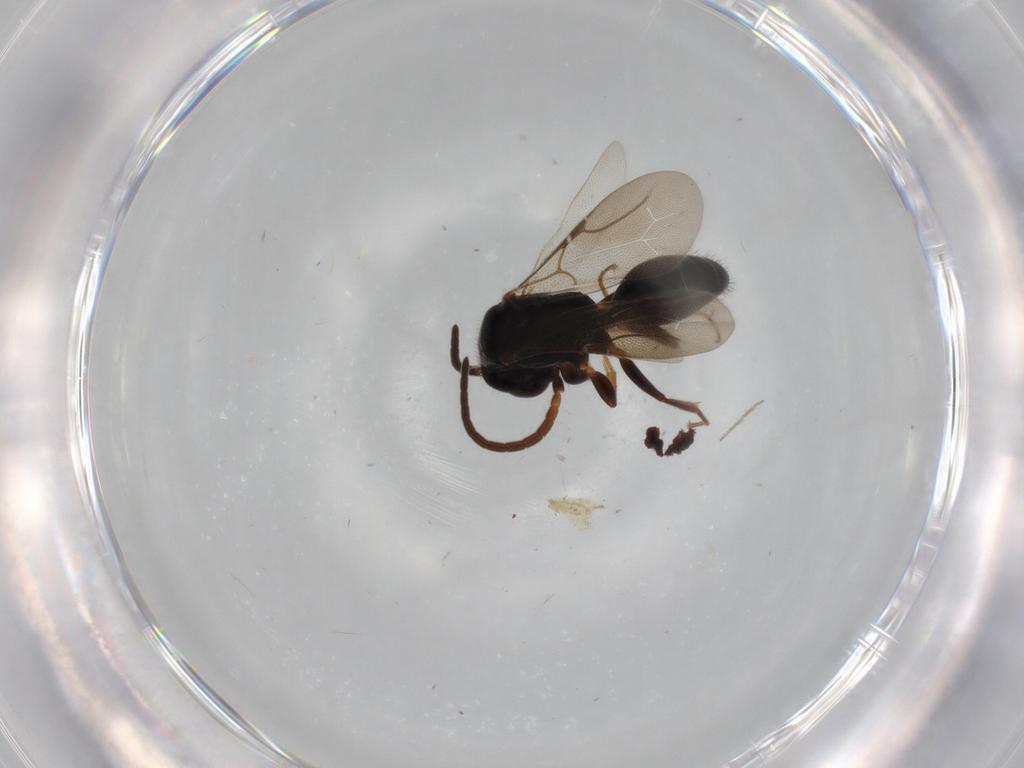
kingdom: Animalia
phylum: Arthropoda
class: Insecta
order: Hymenoptera
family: Bethylidae
